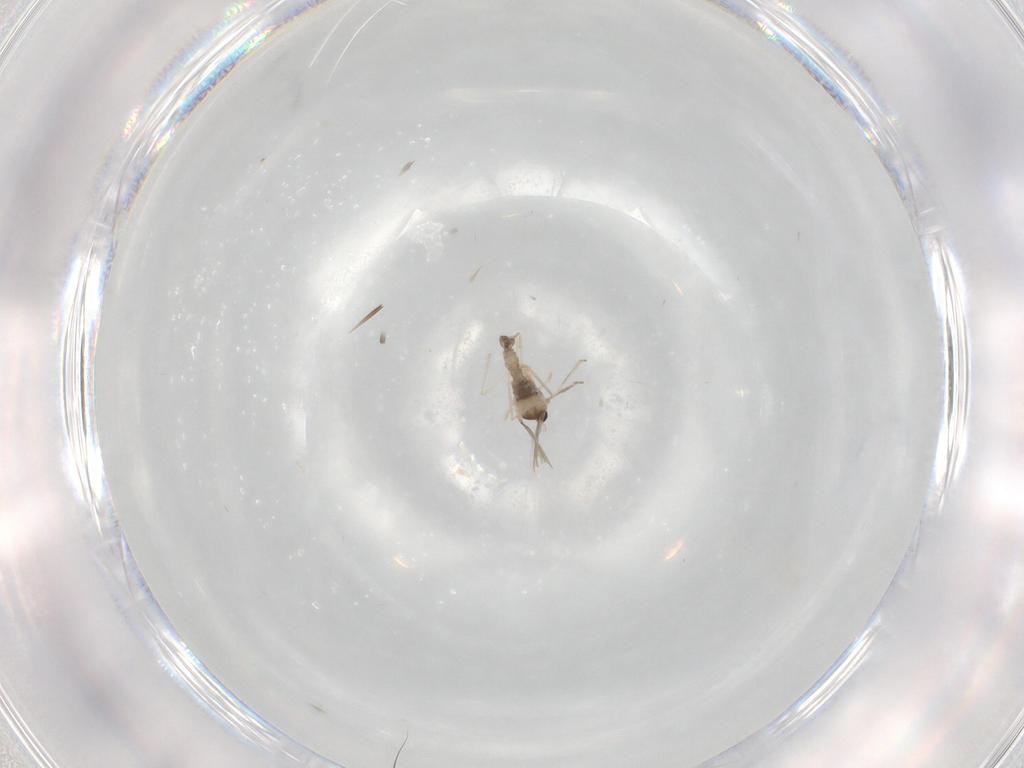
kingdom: Animalia
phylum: Arthropoda
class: Insecta
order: Diptera
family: Cecidomyiidae
